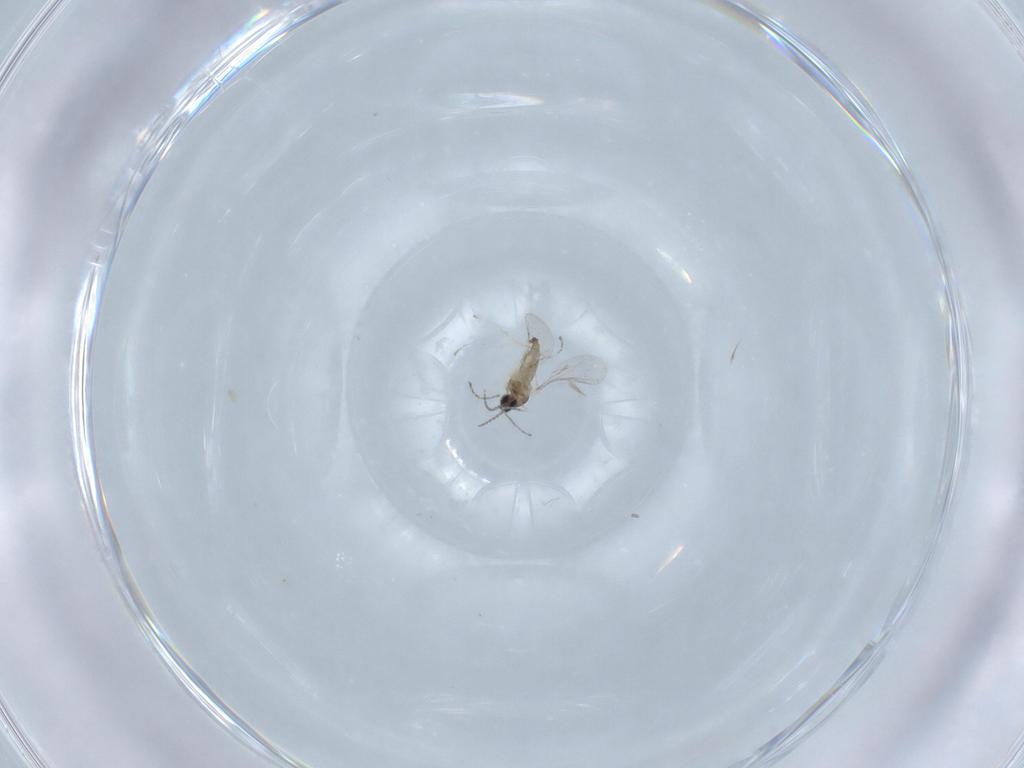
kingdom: Animalia
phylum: Arthropoda
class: Insecta
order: Diptera
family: Cecidomyiidae
